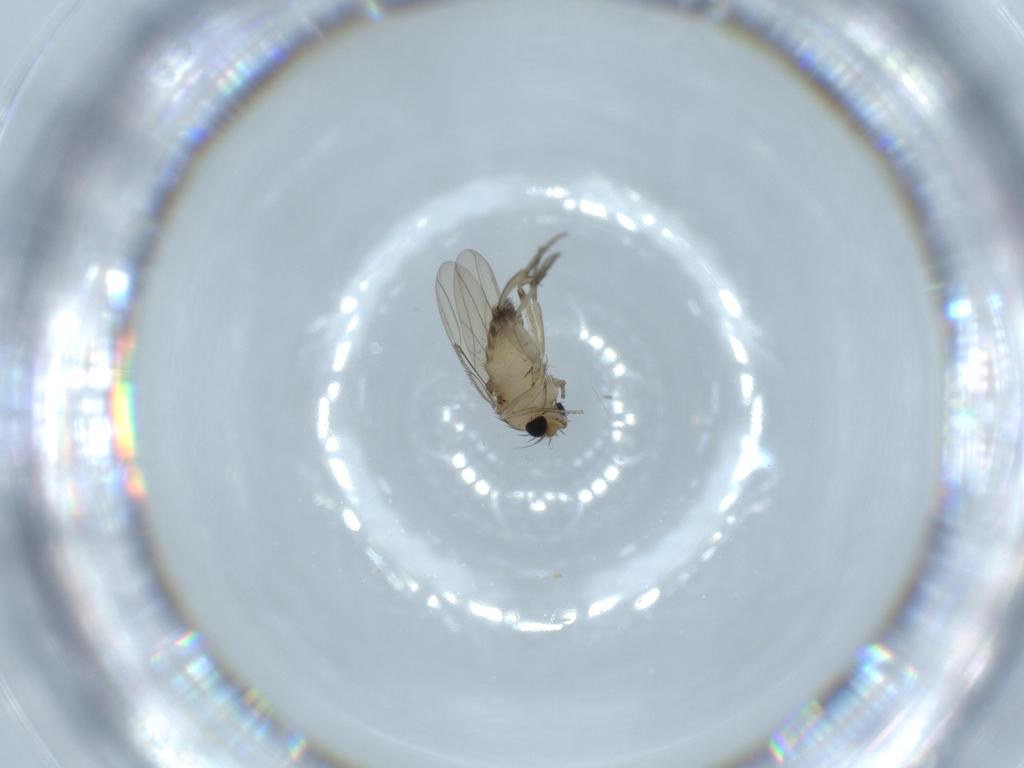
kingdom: Animalia
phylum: Arthropoda
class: Insecta
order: Diptera
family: Phoridae
